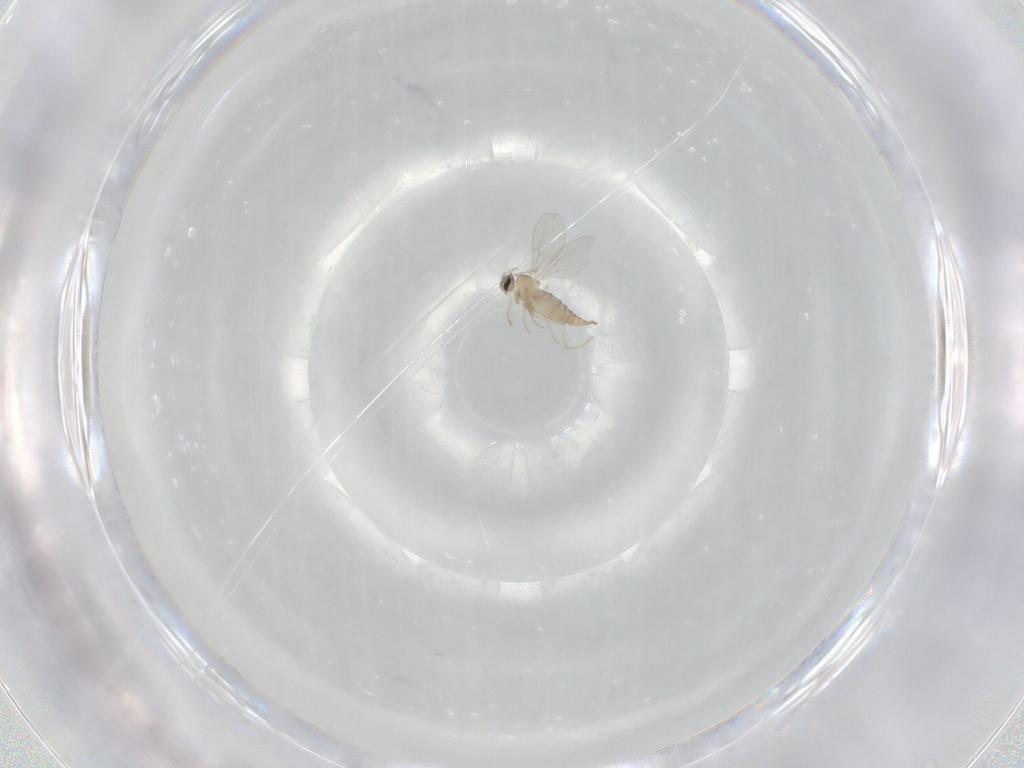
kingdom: Animalia
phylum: Arthropoda
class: Insecta
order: Diptera
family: Cecidomyiidae
